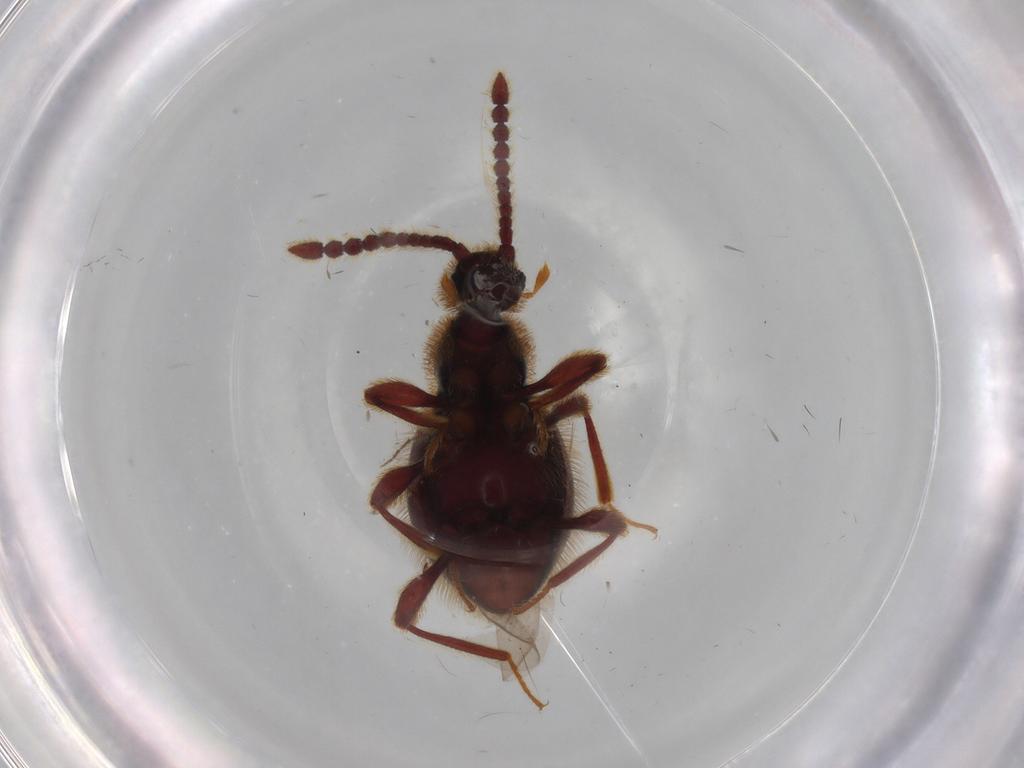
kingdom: Animalia
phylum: Arthropoda
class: Insecta
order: Coleoptera
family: Staphylinidae
